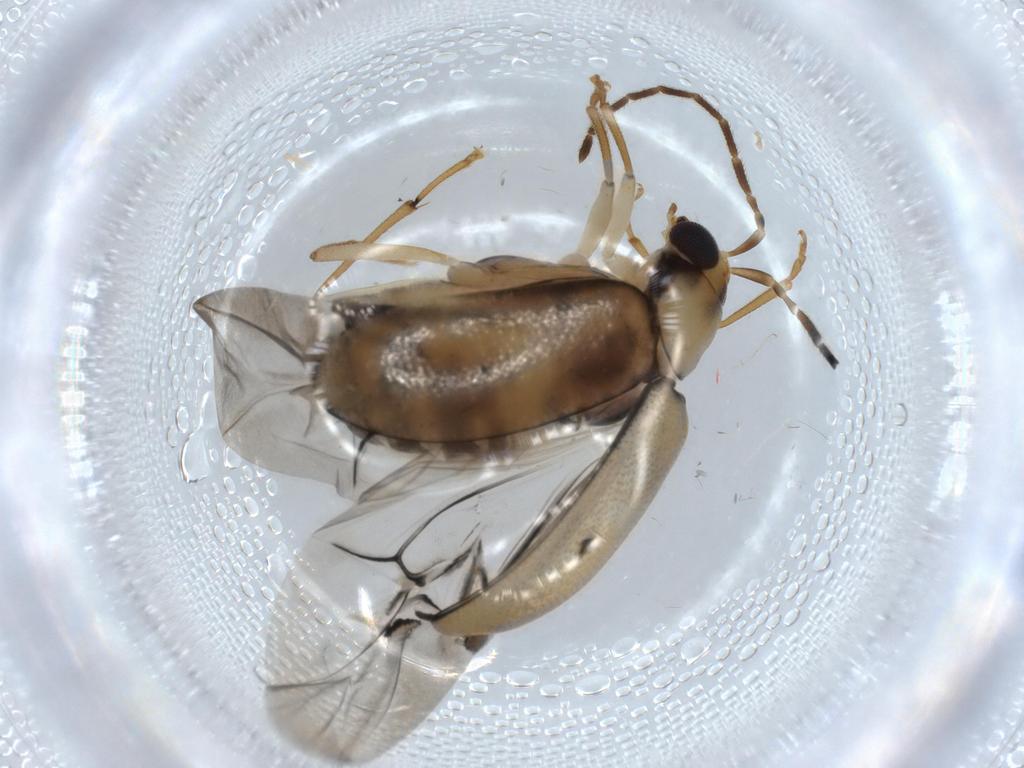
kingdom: Animalia
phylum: Arthropoda
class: Insecta
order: Coleoptera
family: Chrysomelidae
